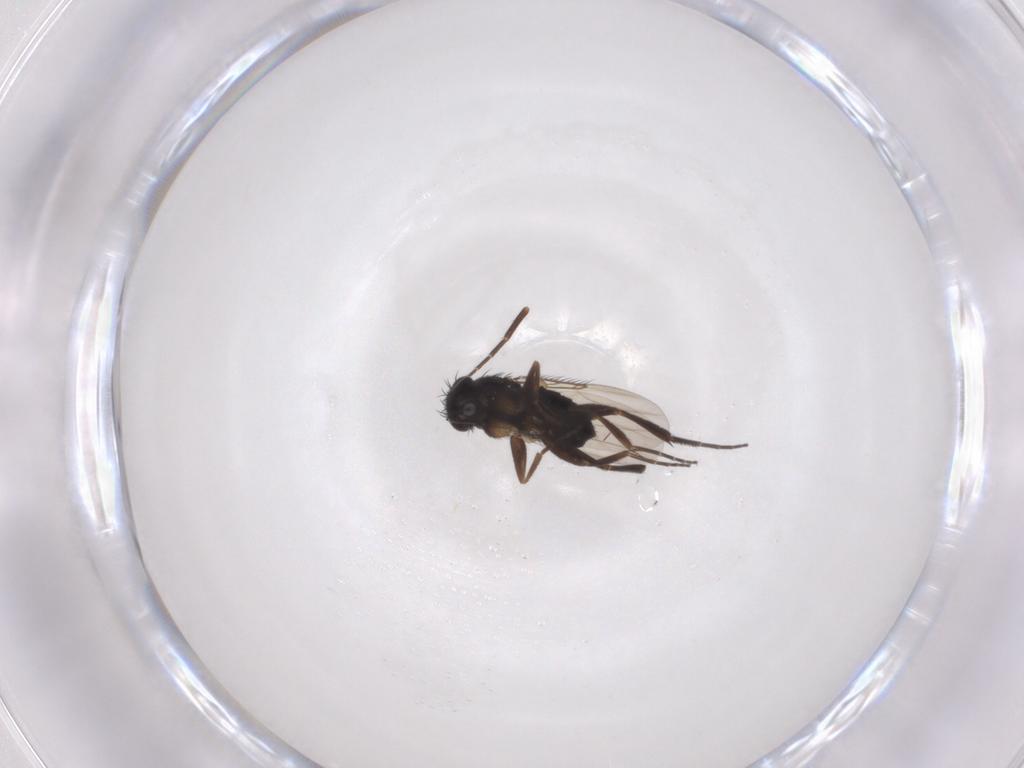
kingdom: Animalia
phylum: Arthropoda
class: Insecta
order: Diptera
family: Phoridae
